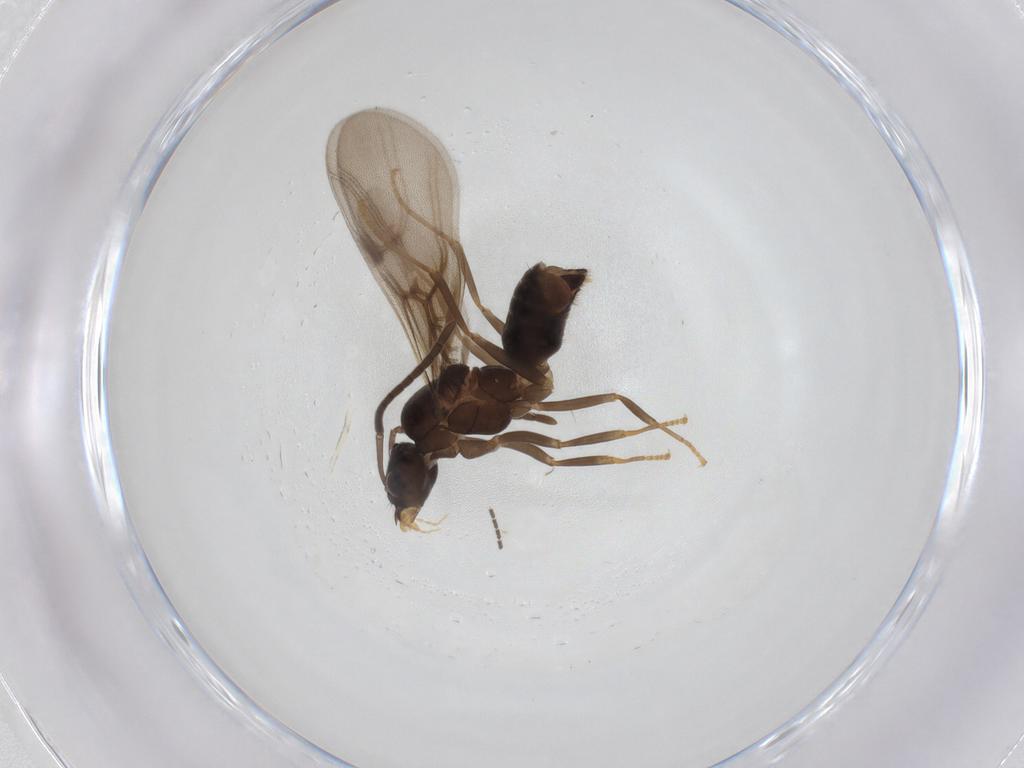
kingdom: Animalia
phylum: Arthropoda
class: Insecta
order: Hymenoptera
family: Formicidae
